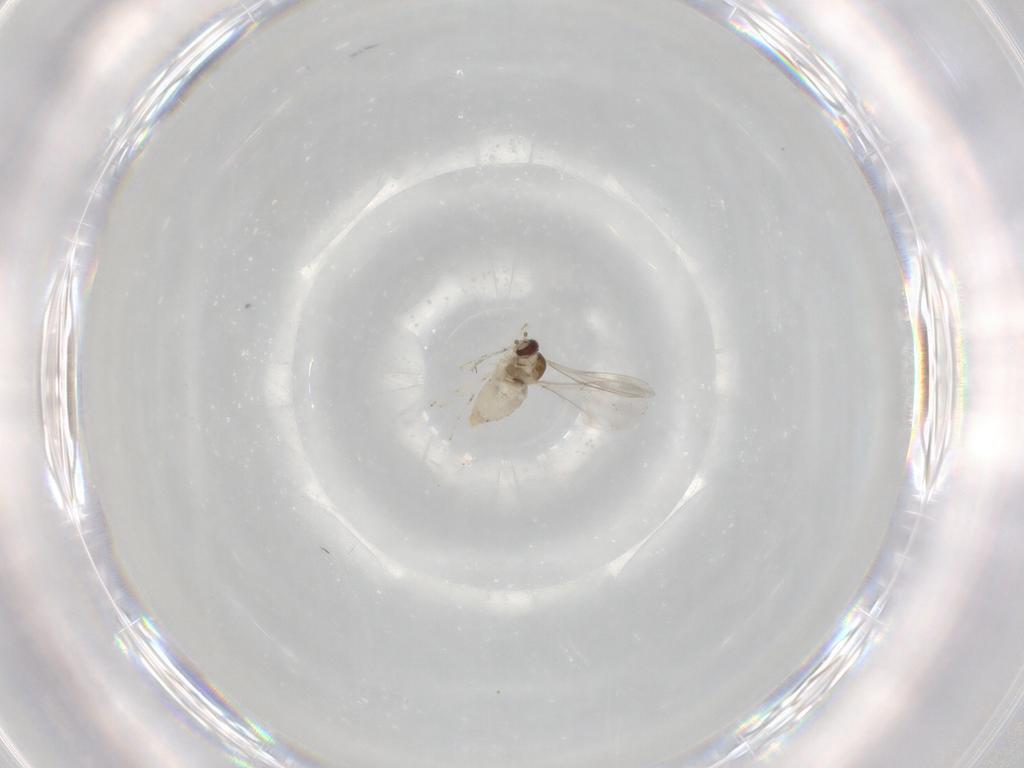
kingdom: Animalia
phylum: Arthropoda
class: Insecta
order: Diptera
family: Cecidomyiidae
